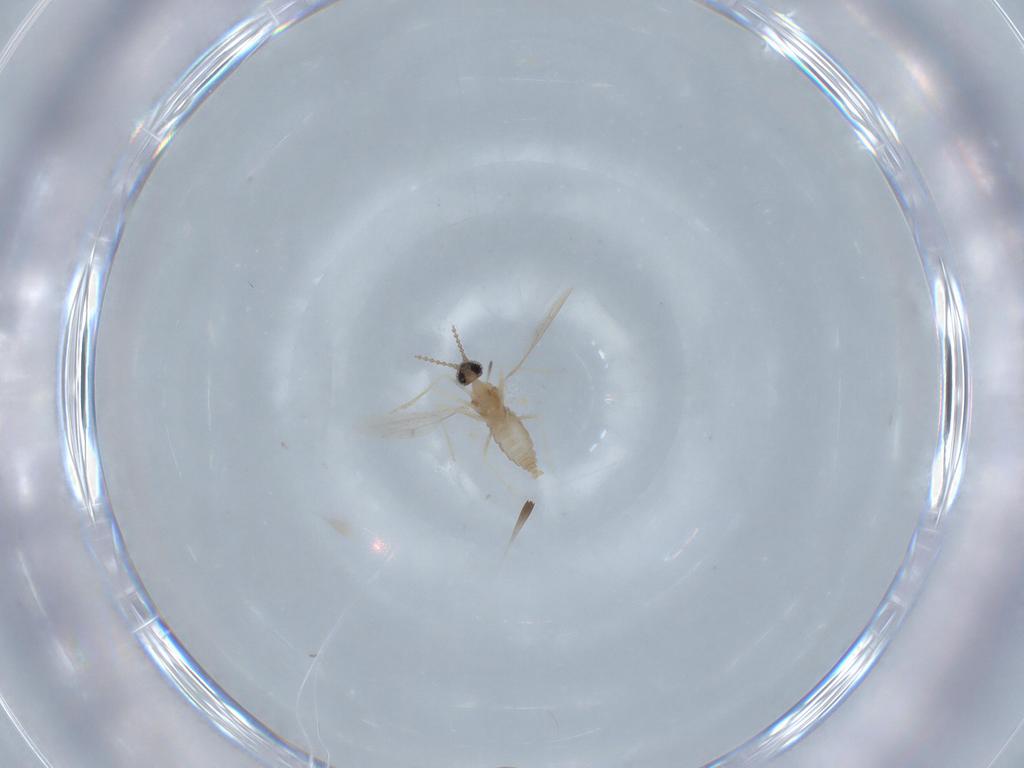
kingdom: Animalia
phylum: Arthropoda
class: Insecta
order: Diptera
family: Cecidomyiidae
